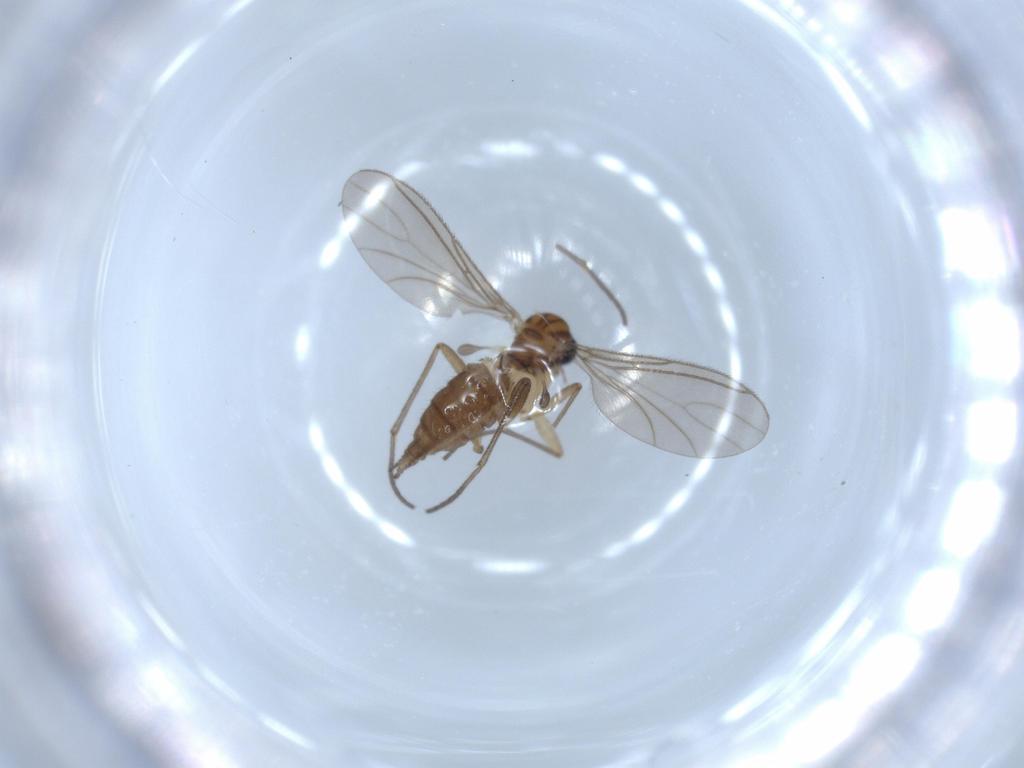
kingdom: Animalia
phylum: Arthropoda
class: Insecta
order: Diptera
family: Sciaridae
